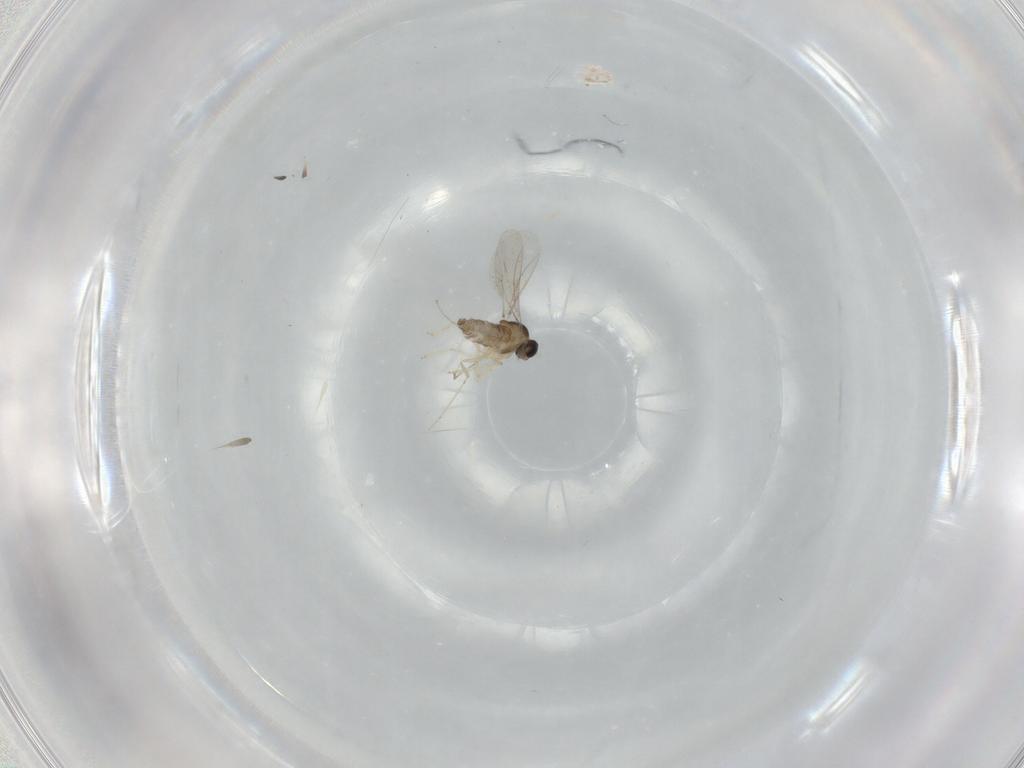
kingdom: Animalia
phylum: Arthropoda
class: Insecta
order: Diptera
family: Cecidomyiidae
